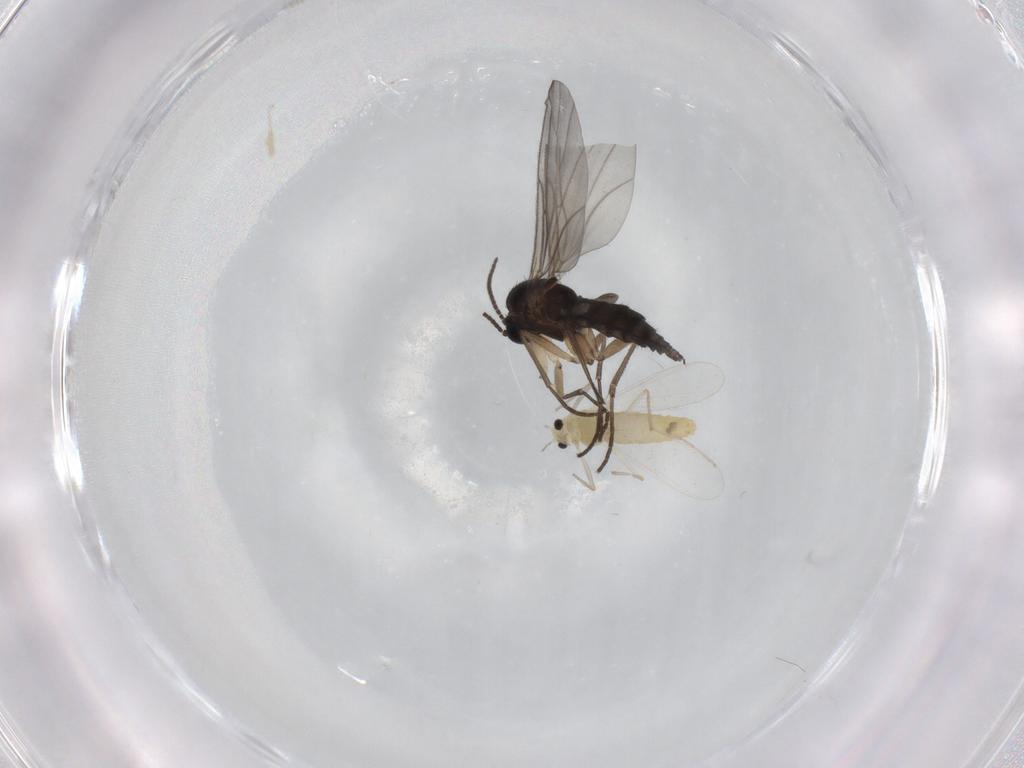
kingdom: Animalia
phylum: Arthropoda
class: Insecta
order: Diptera
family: Chironomidae
